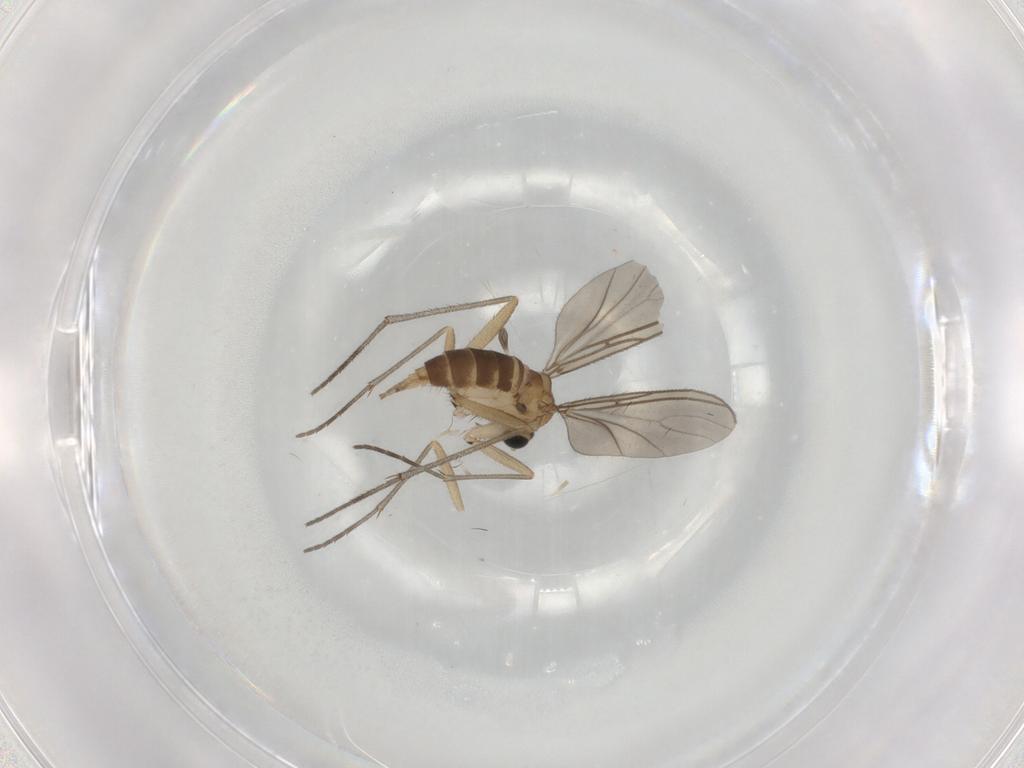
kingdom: Animalia
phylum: Arthropoda
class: Insecta
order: Diptera
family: Sciaridae
